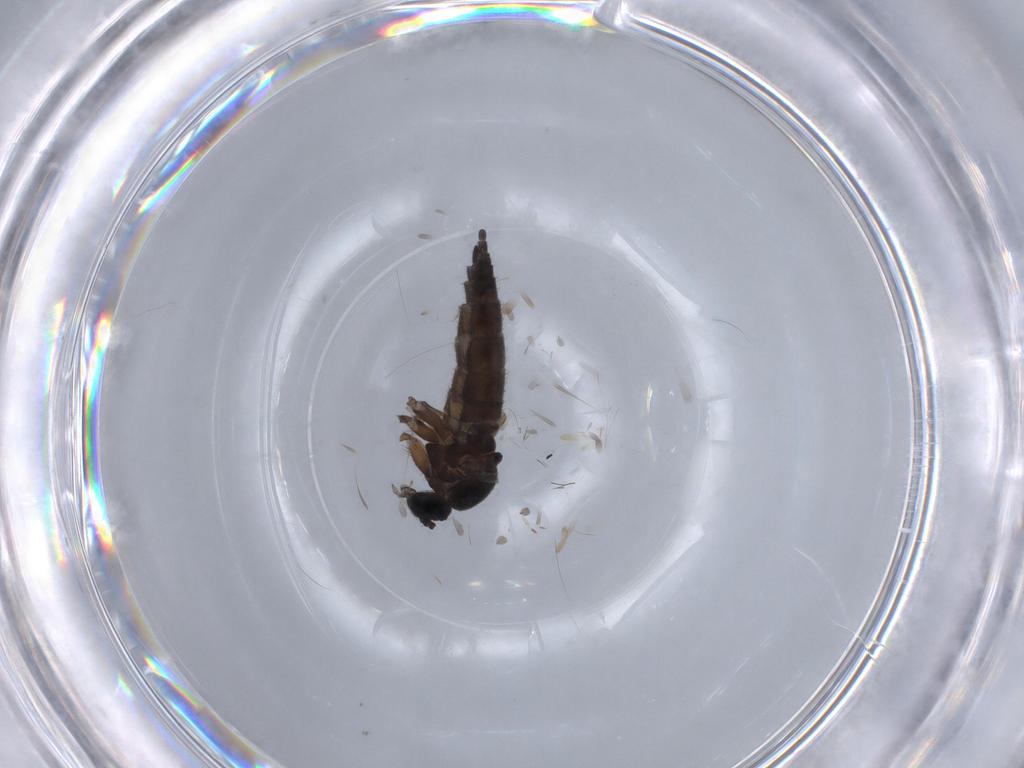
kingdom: Animalia
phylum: Arthropoda
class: Insecta
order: Diptera
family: Sciaridae
